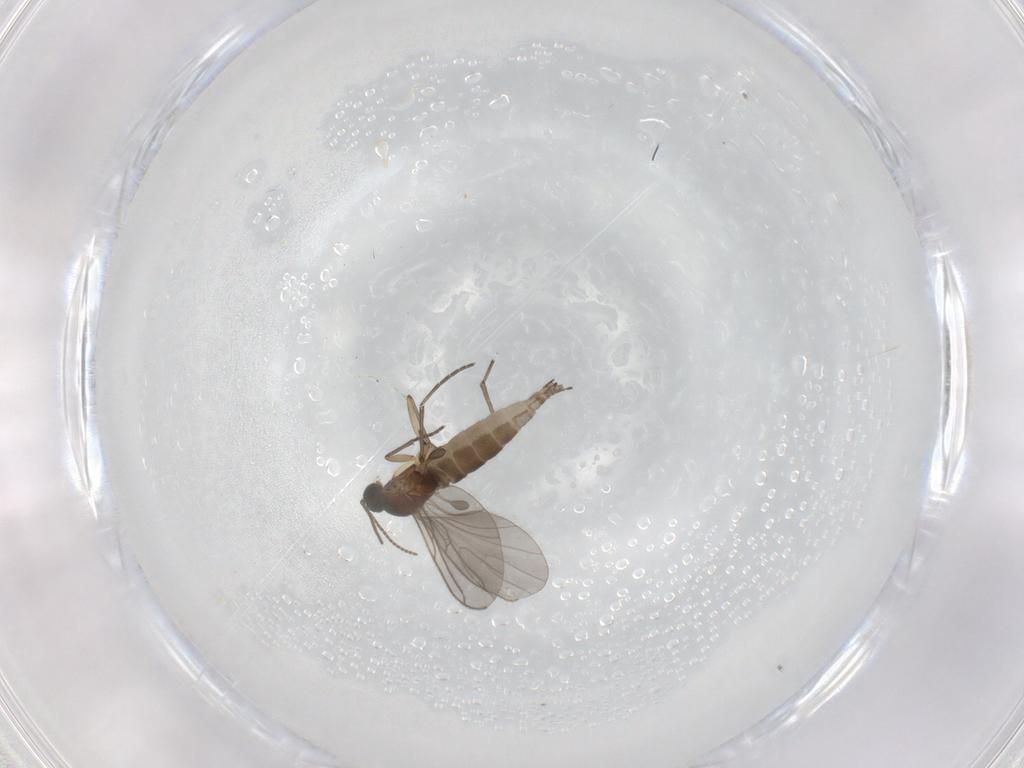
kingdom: Animalia
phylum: Arthropoda
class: Insecta
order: Diptera
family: Sciaridae
